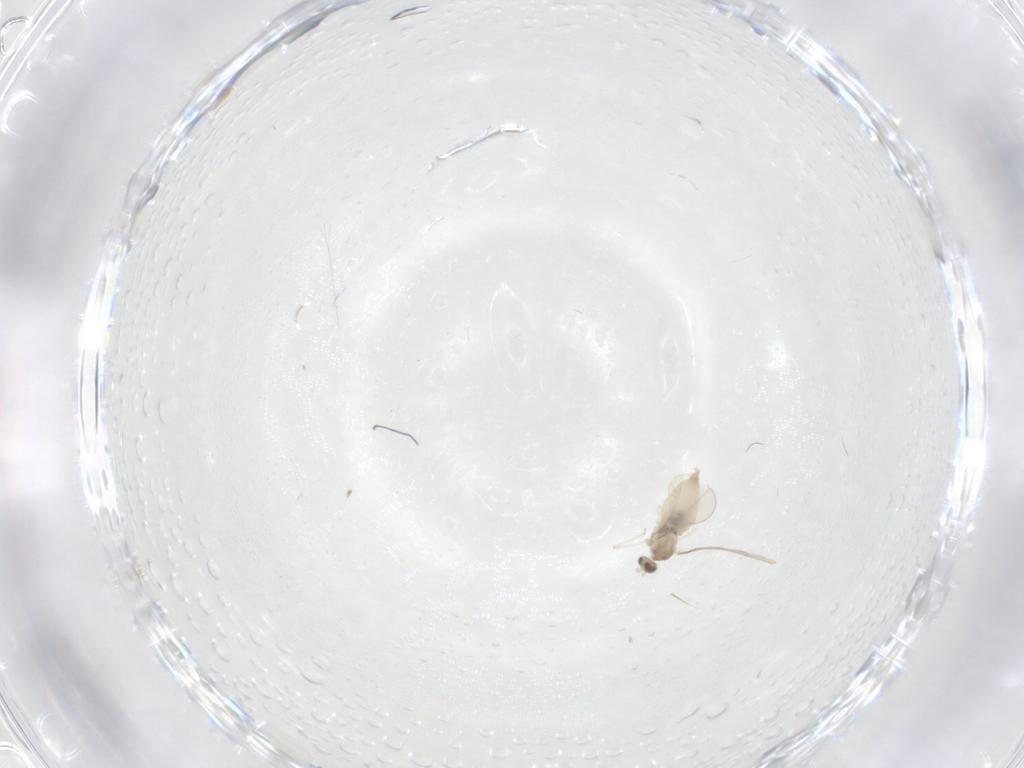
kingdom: Animalia
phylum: Arthropoda
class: Insecta
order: Diptera
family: Cecidomyiidae
